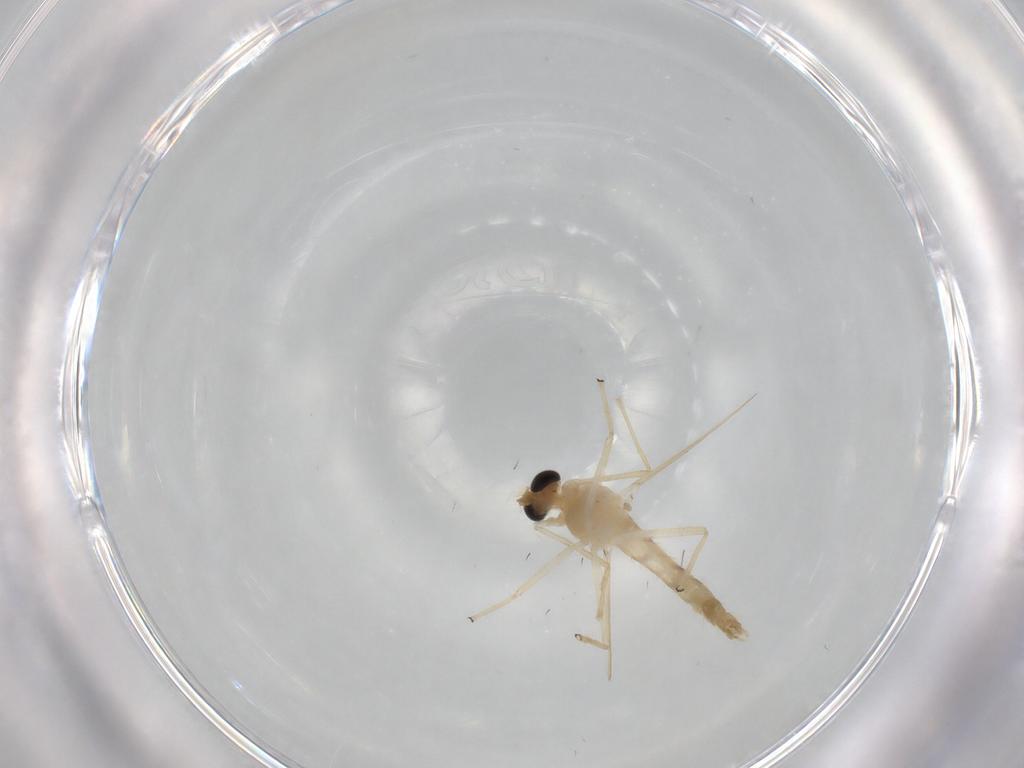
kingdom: Animalia
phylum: Arthropoda
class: Insecta
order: Diptera
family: Chironomidae
